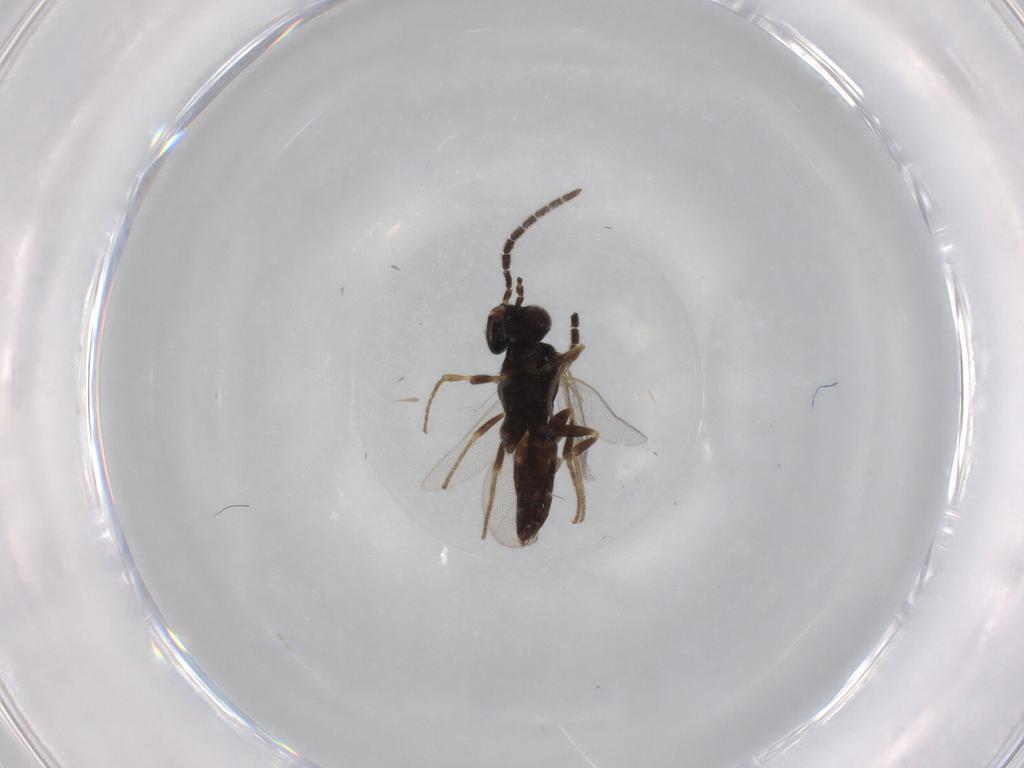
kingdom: Animalia
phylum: Arthropoda
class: Insecta
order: Hymenoptera
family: Dryinidae
